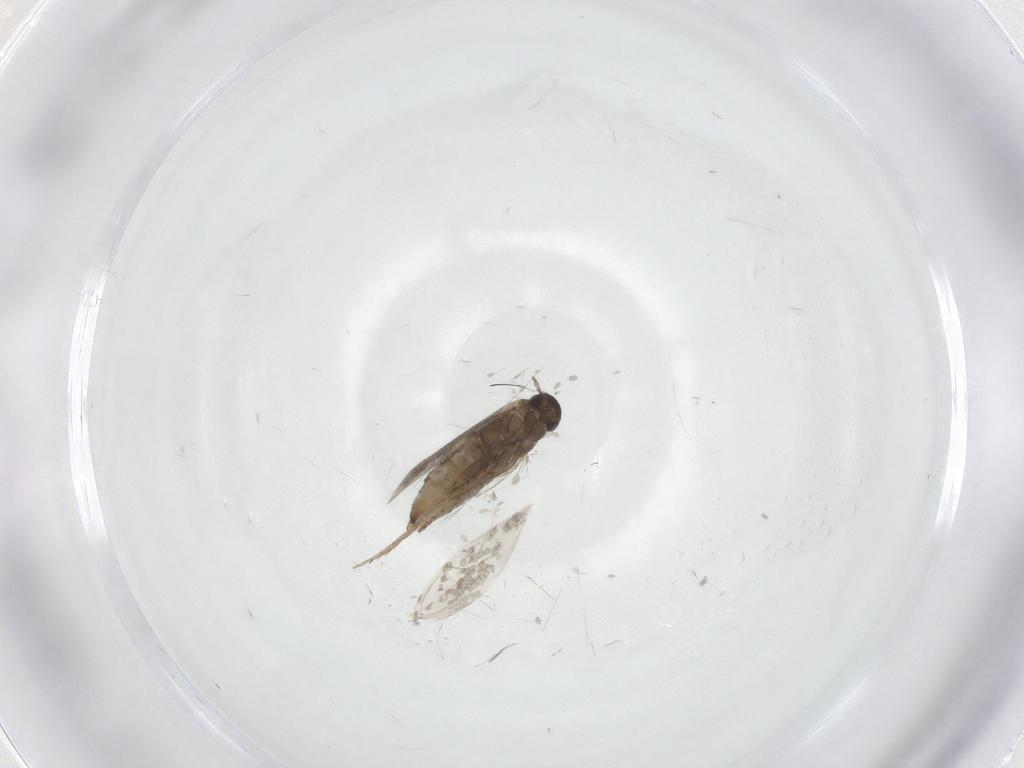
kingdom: Animalia
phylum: Arthropoda
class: Insecta
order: Lepidoptera
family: Heliozelidae
